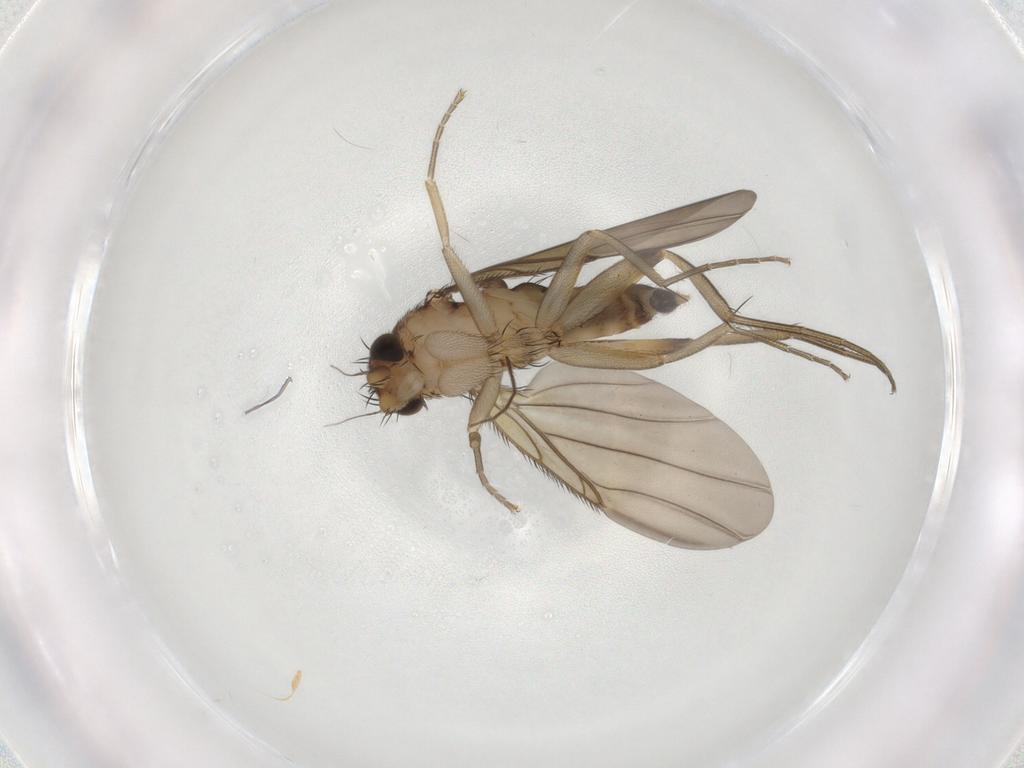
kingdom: Animalia
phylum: Arthropoda
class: Insecta
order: Diptera
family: Phoridae
